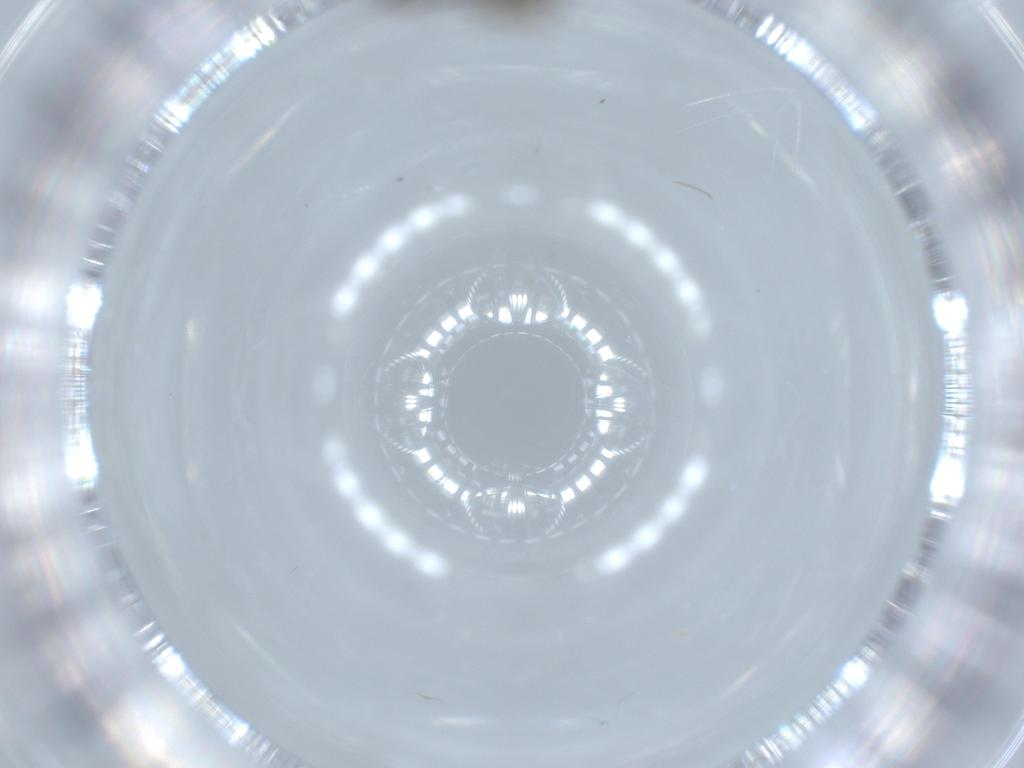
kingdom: Animalia
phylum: Arthropoda
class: Insecta
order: Diptera
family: Sciaridae
